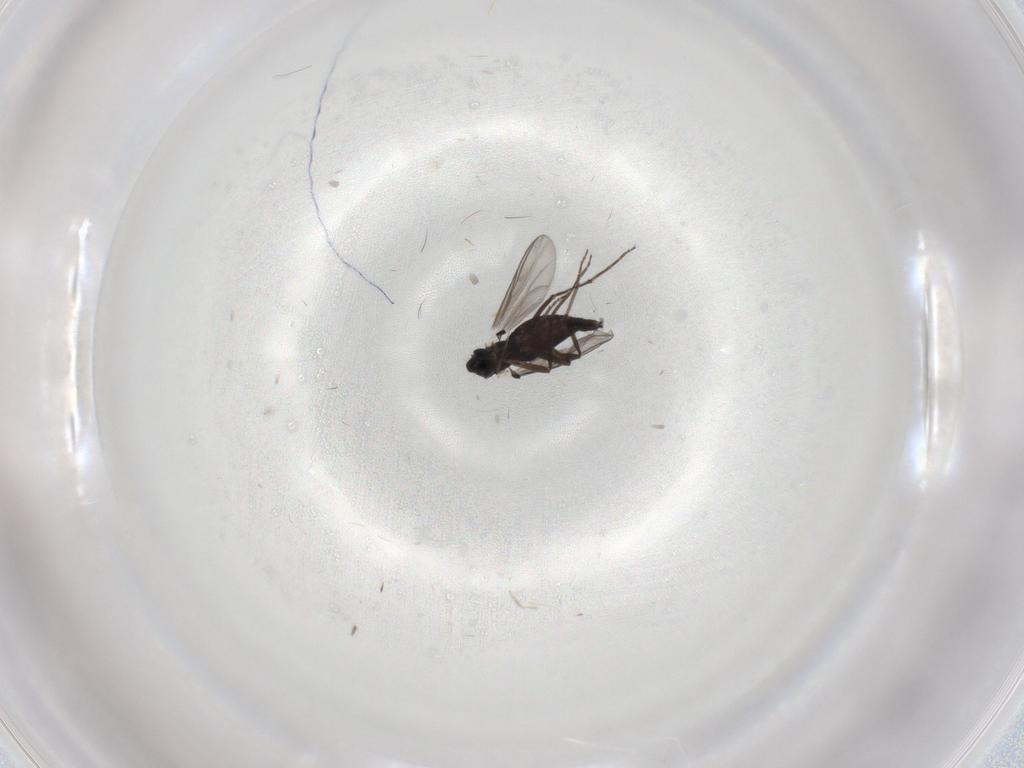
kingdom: Animalia
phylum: Arthropoda
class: Insecta
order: Diptera
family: Chironomidae
